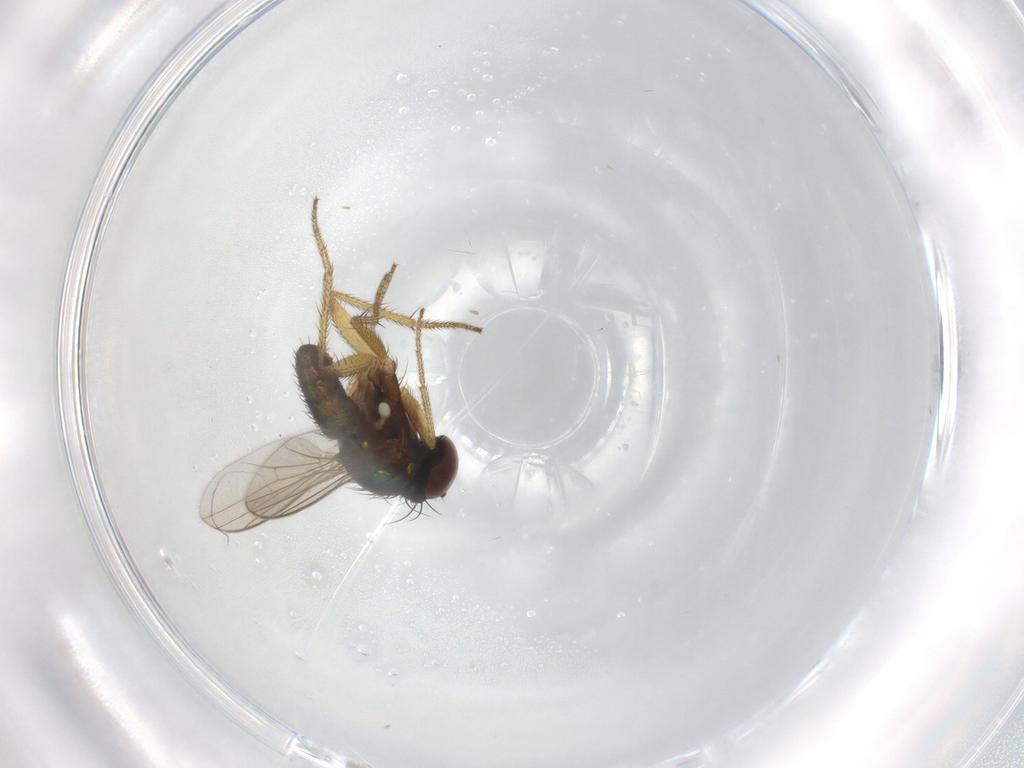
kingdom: Animalia
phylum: Arthropoda
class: Insecta
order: Diptera
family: Dolichopodidae
